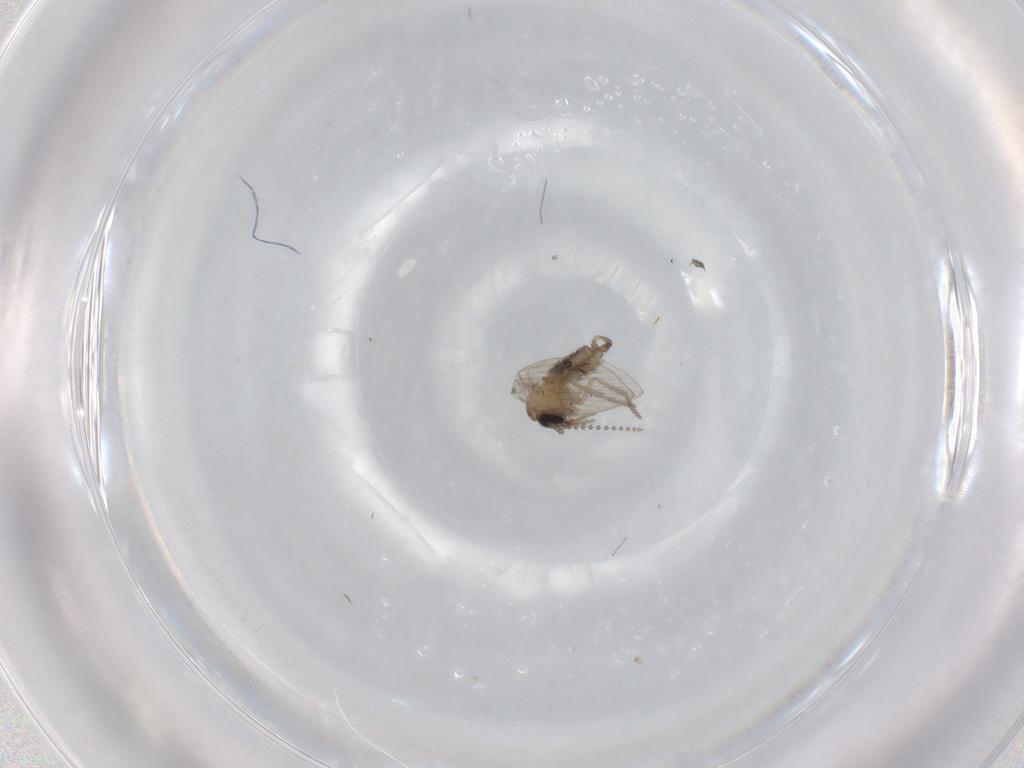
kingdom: Animalia
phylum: Arthropoda
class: Insecta
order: Diptera
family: Psychodidae
